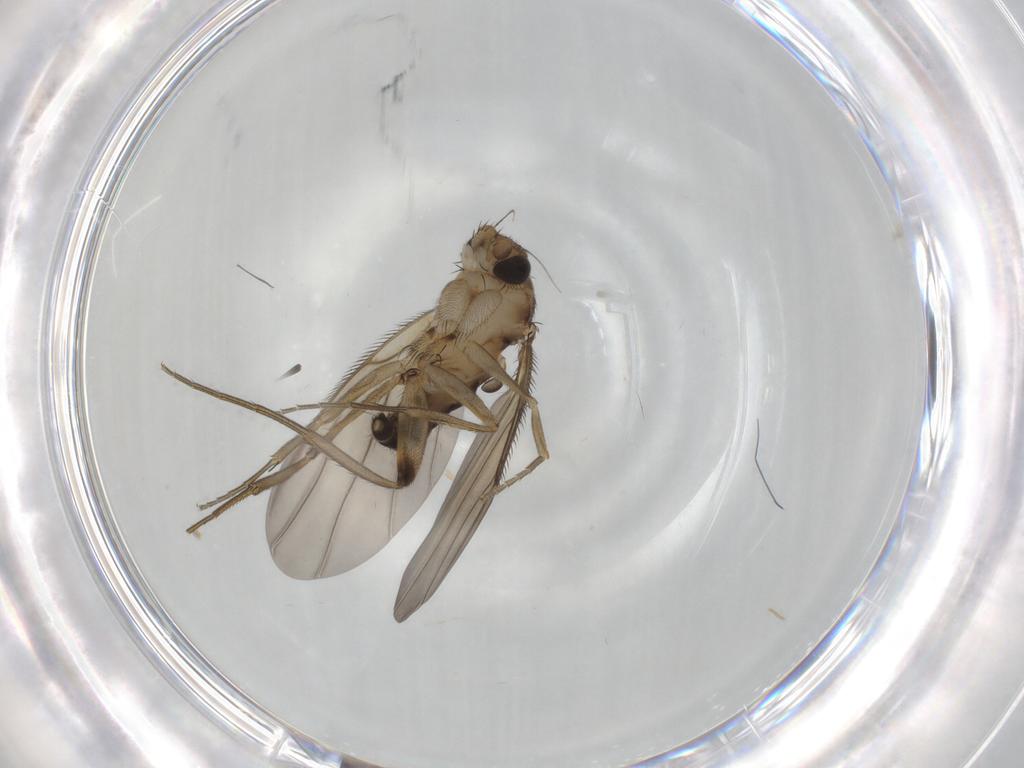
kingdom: Animalia
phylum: Arthropoda
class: Insecta
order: Diptera
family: Phoridae
